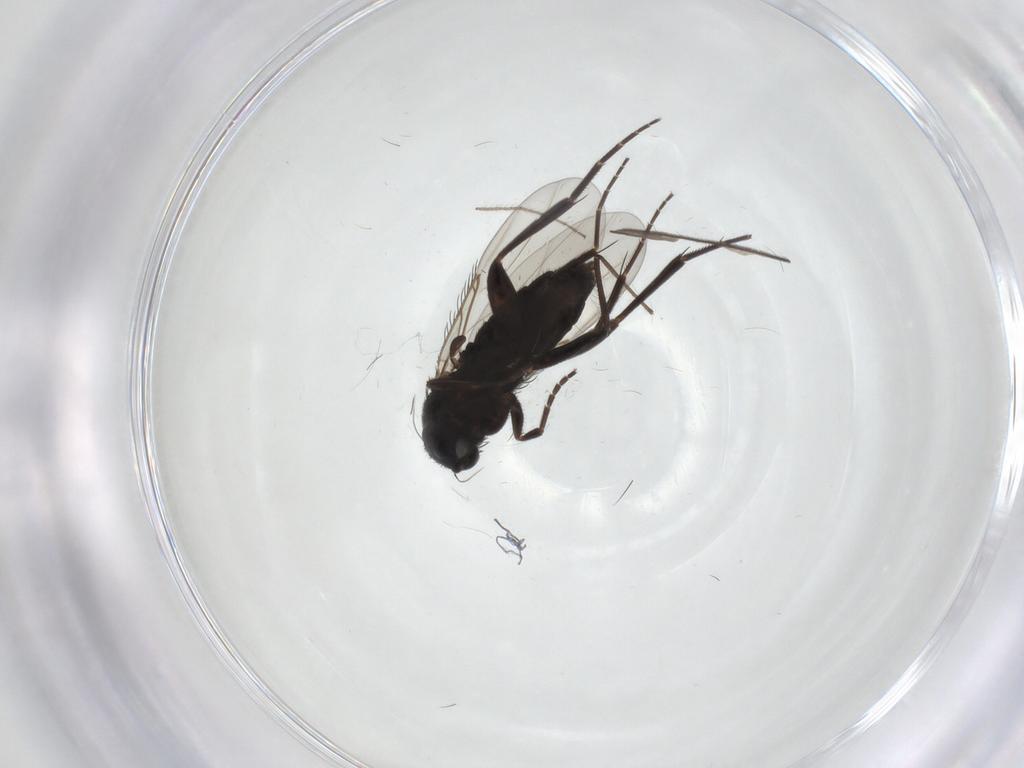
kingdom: Animalia
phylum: Arthropoda
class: Insecta
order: Diptera
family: Phoridae
